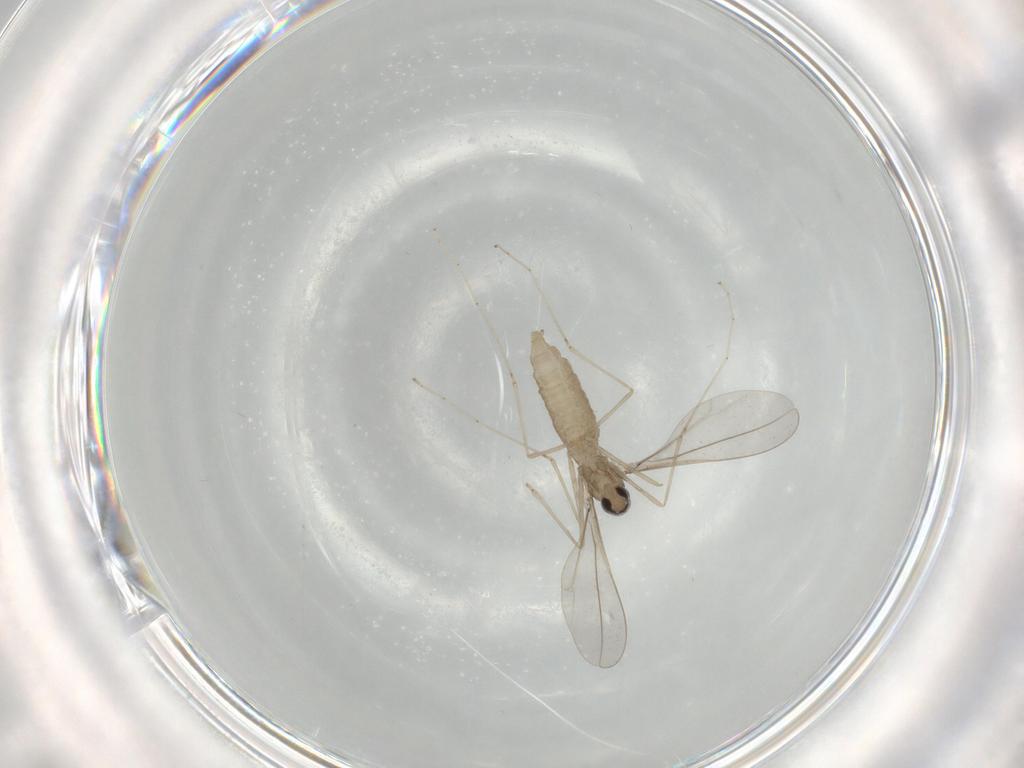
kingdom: Animalia
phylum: Arthropoda
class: Insecta
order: Diptera
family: Cecidomyiidae
